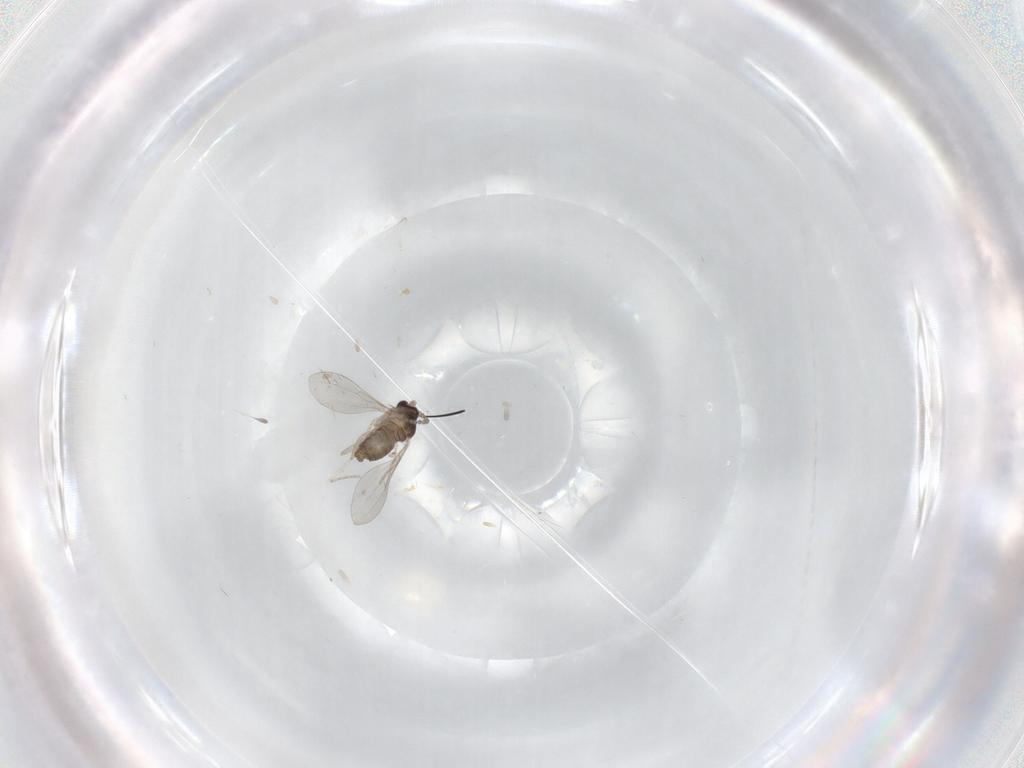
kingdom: Animalia
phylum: Arthropoda
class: Insecta
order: Diptera
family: Cecidomyiidae
